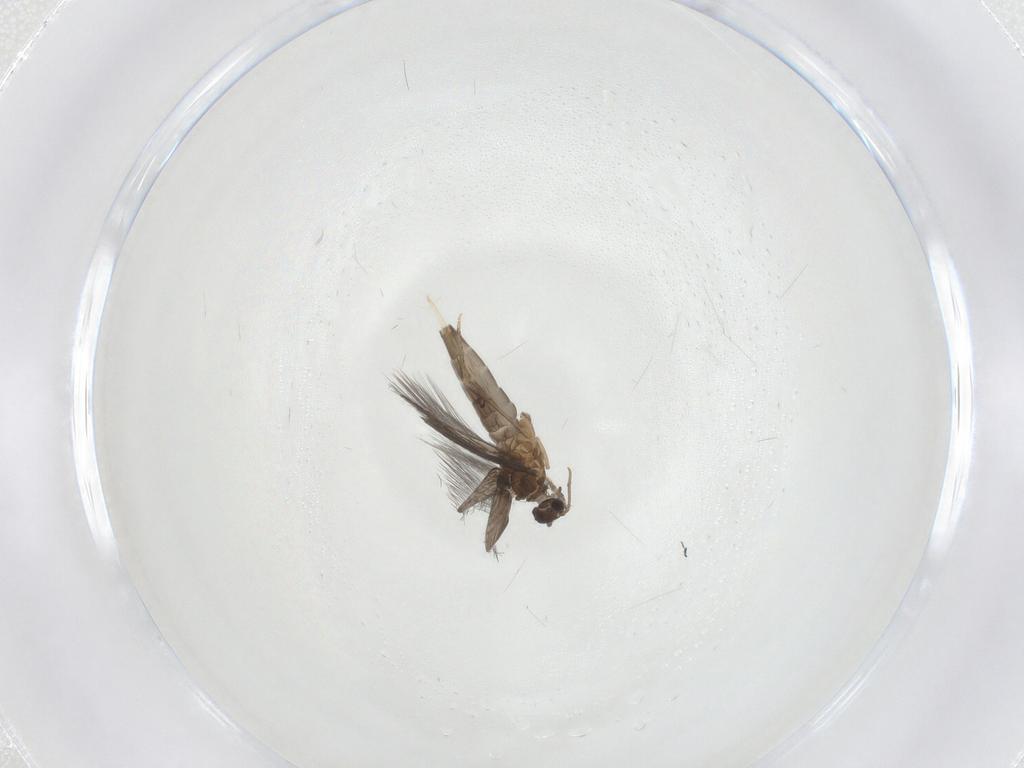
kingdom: Animalia
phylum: Arthropoda
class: Insecta
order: Trichoptera
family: Hydroptilidae
